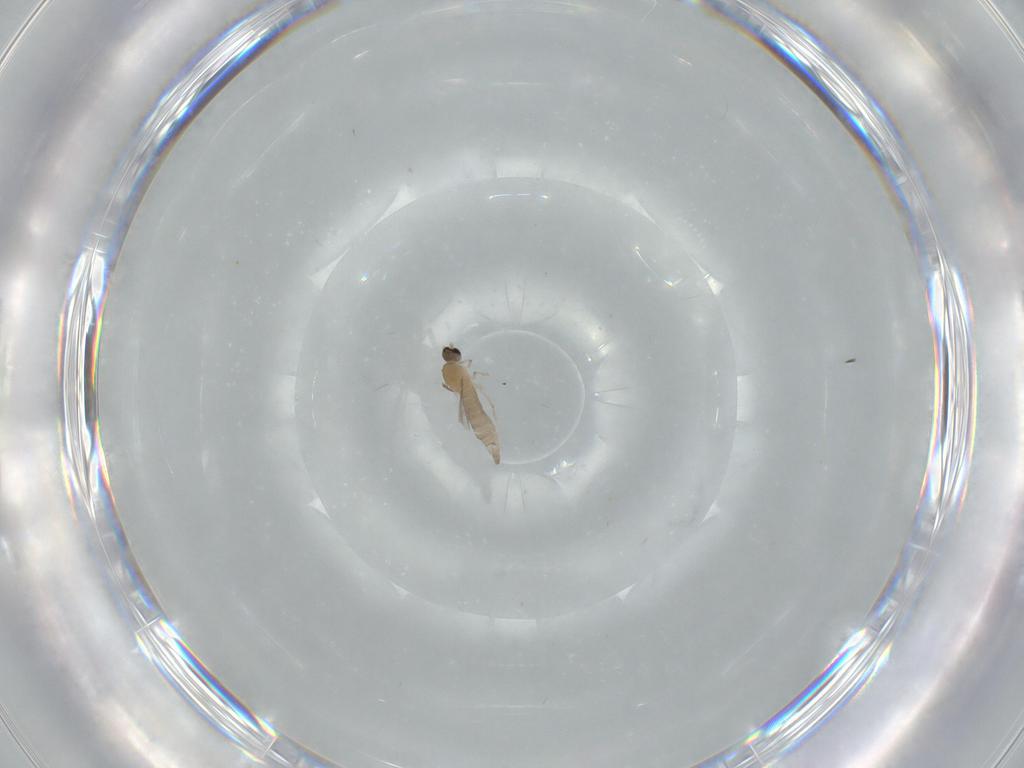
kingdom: Animalia
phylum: Arthropoda
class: Insecta
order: Diptera
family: Cecidomyiidae
